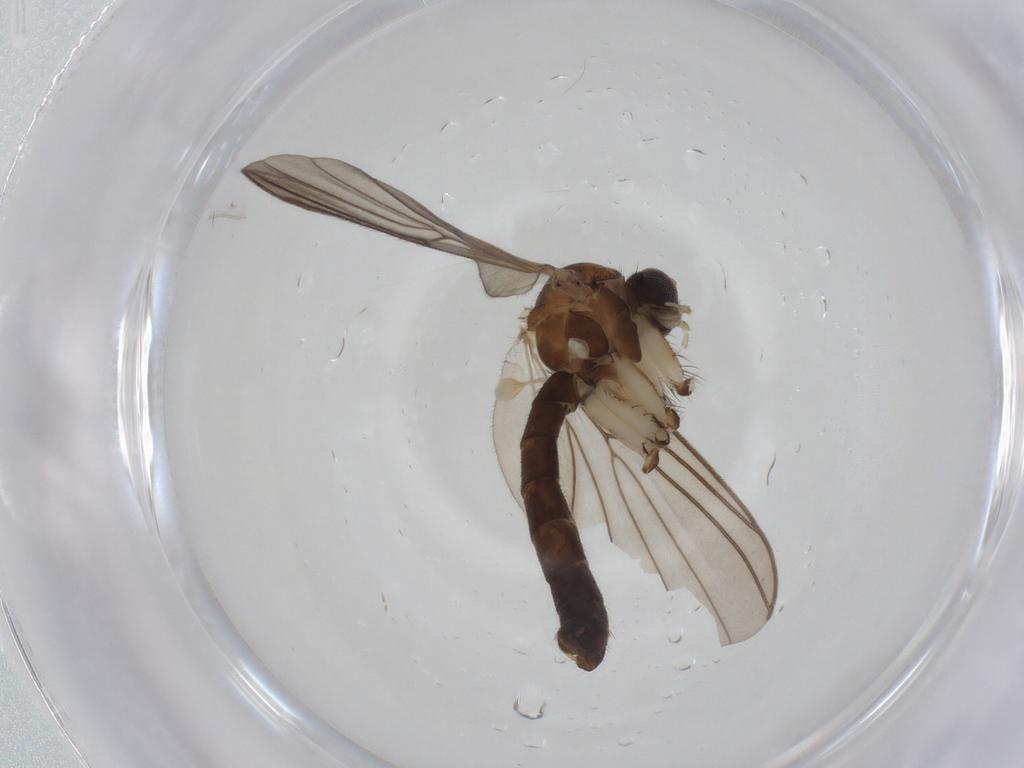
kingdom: Animalia
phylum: Arthropoda
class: Insecta
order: Diptera
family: Mycetophilidae
